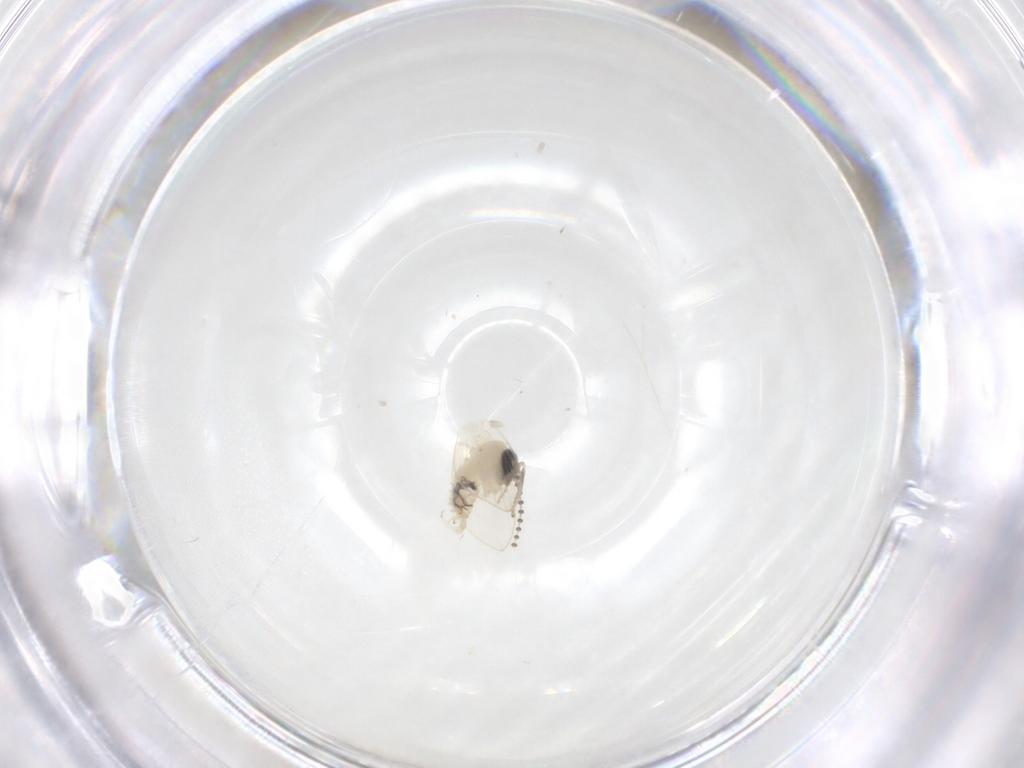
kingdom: Animalia
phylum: Arthropoda
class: Insecta
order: Diptera
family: Psychodidae
